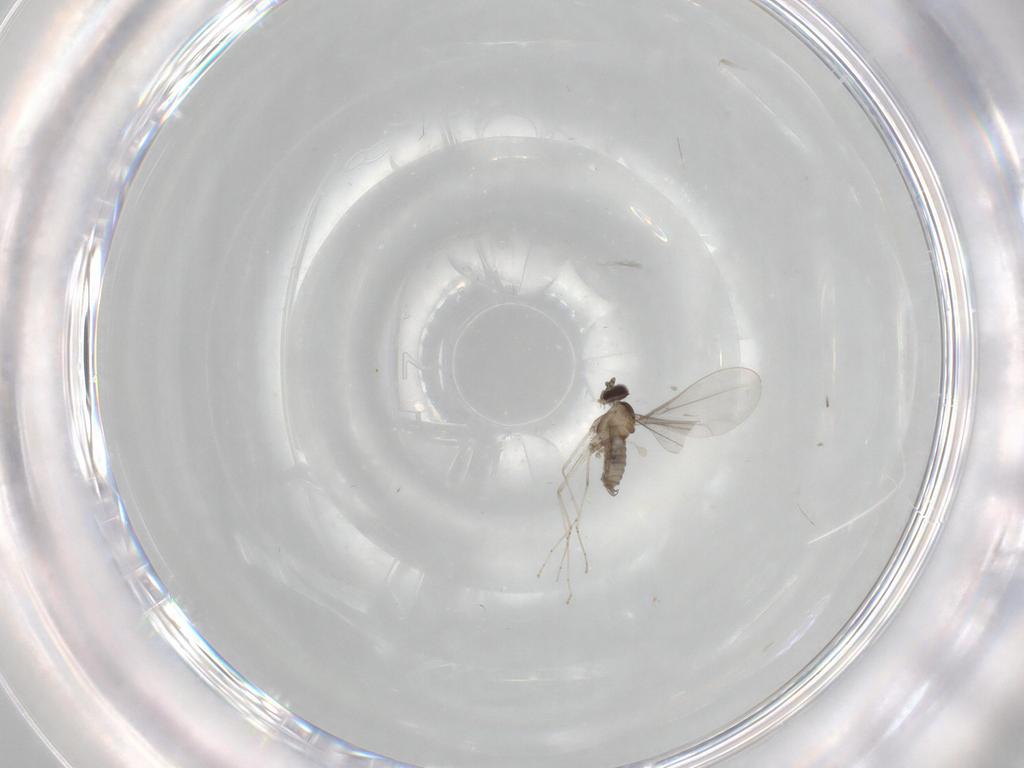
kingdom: Animalia
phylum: Arthropoda
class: Insecta
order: Diptera
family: Cecidomyiidae
